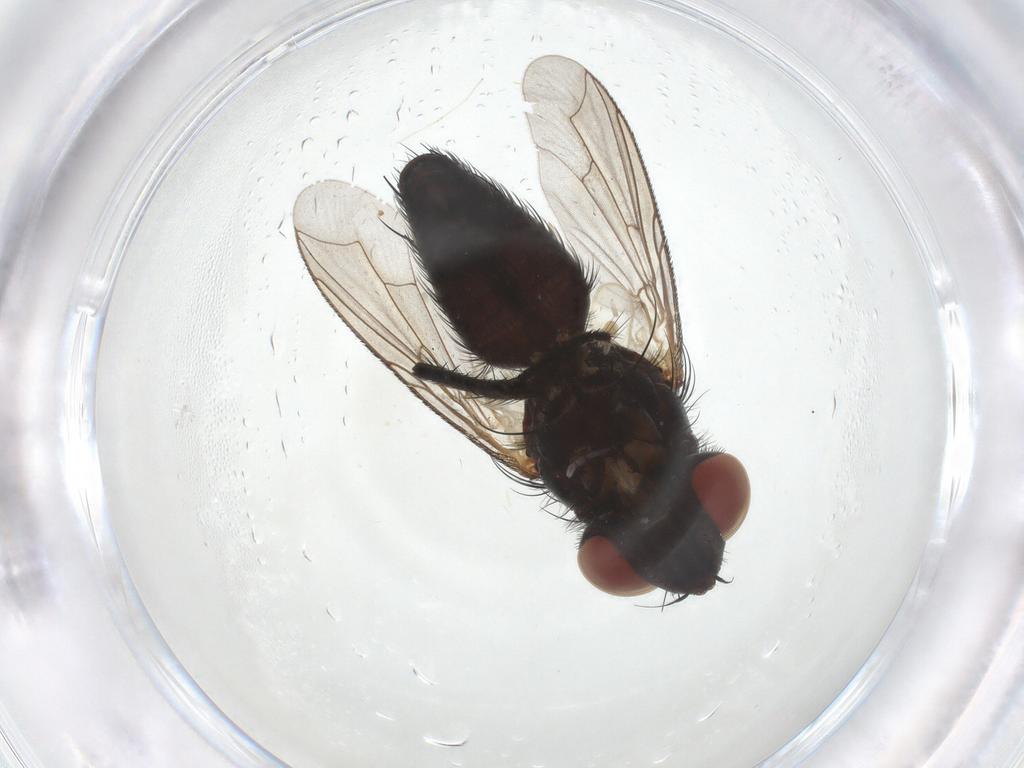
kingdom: Animalia
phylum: Arthropoda
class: Insecta
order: Diptera
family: Sarcophagidae
